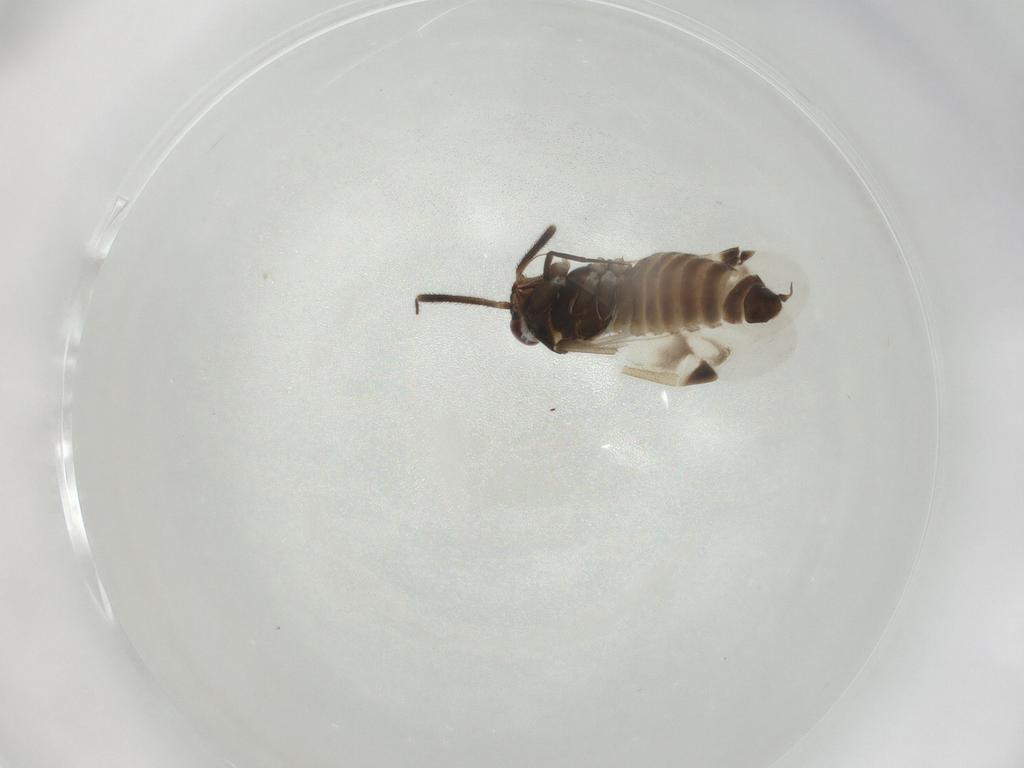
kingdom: Animalia
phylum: Arthropoda
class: Insecta
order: Hemiptera
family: Miridae
